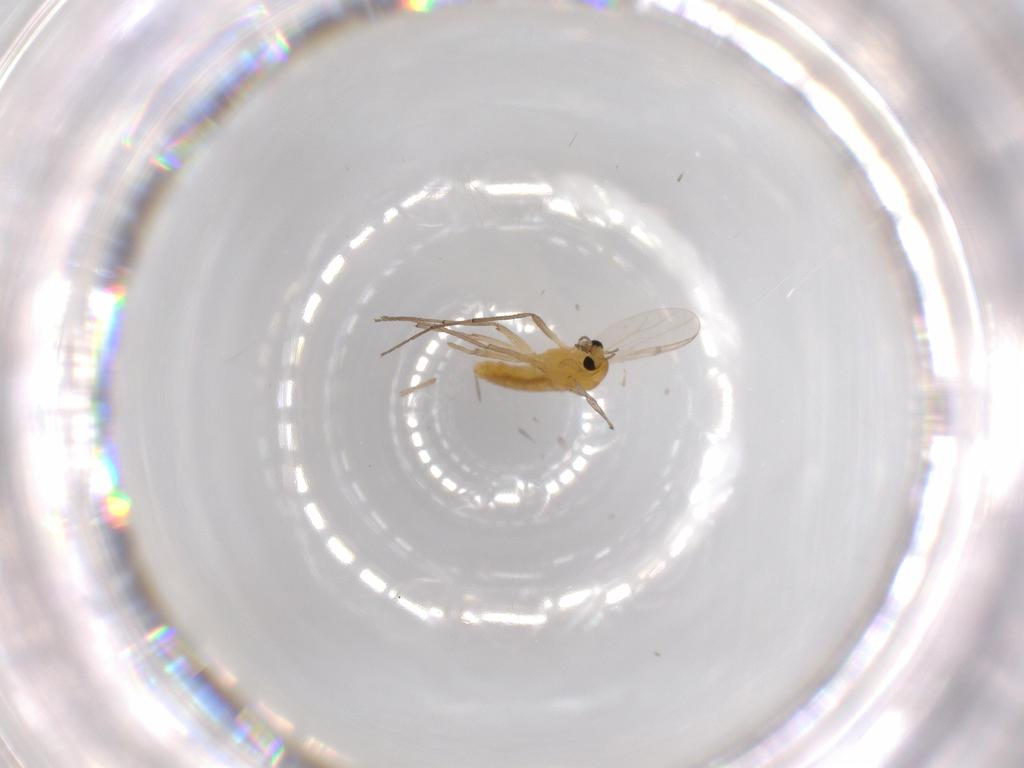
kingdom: Animalia
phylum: Arthropoda
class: Insecta
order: Diptera
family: Chironomidae
